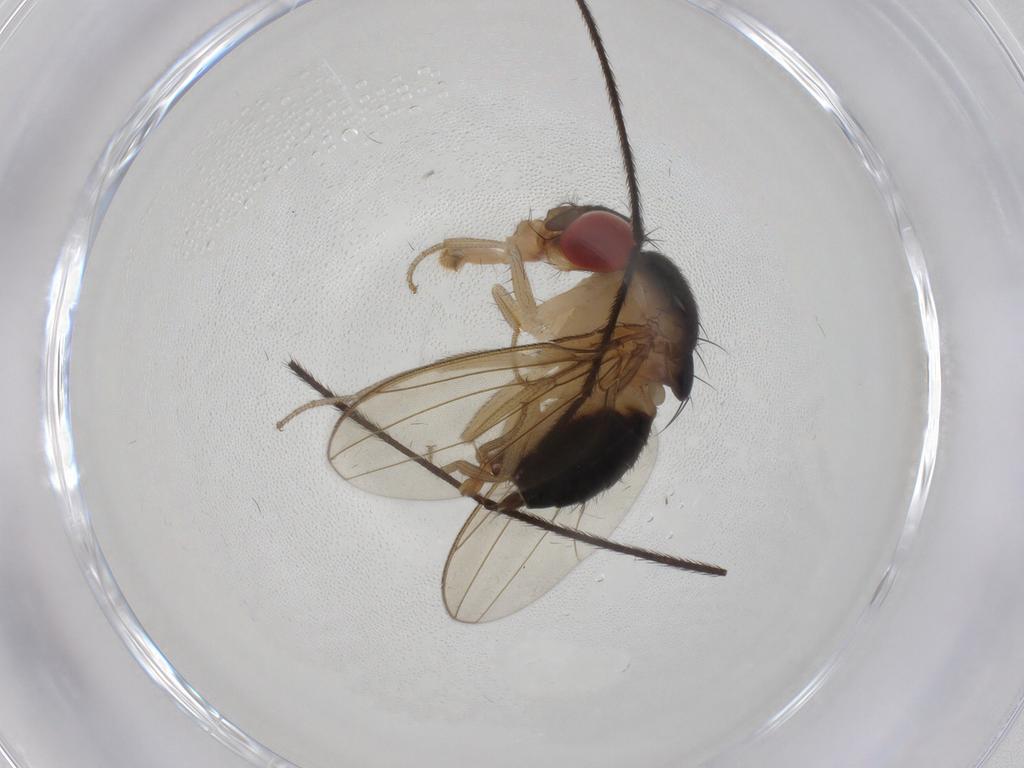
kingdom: Animalia
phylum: Arthropoda
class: Insecta
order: Diptera
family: Drosophilidae
